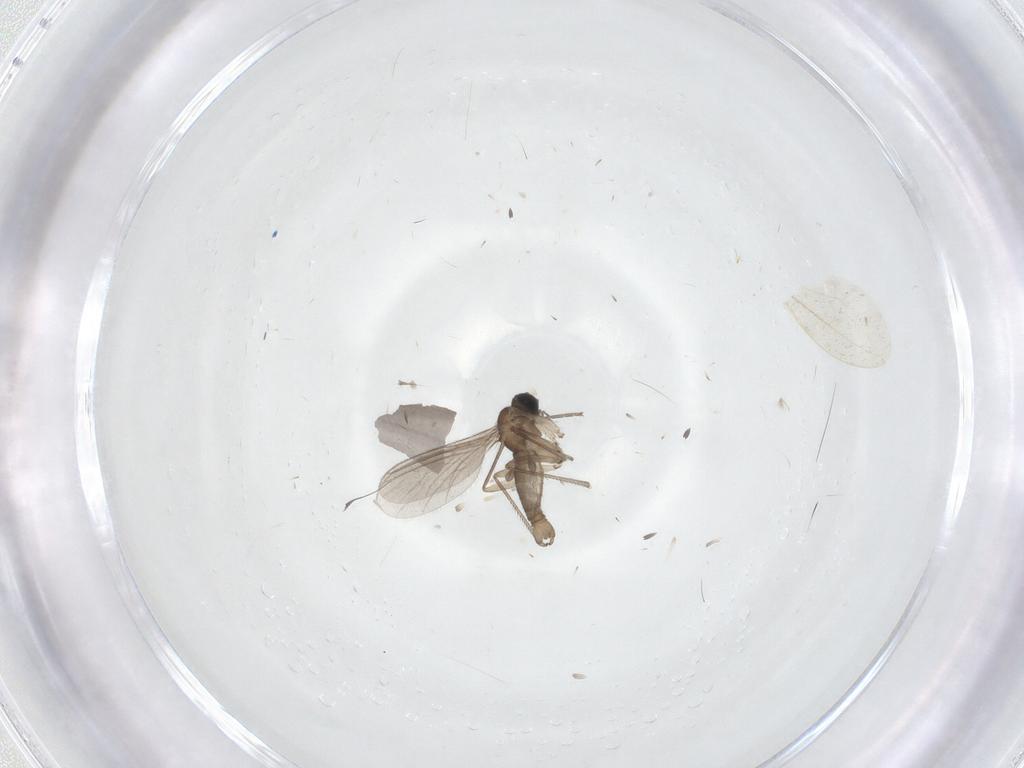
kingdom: Animalia
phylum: Arthropoda
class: Insecta
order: Diptera
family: Sciaridae
